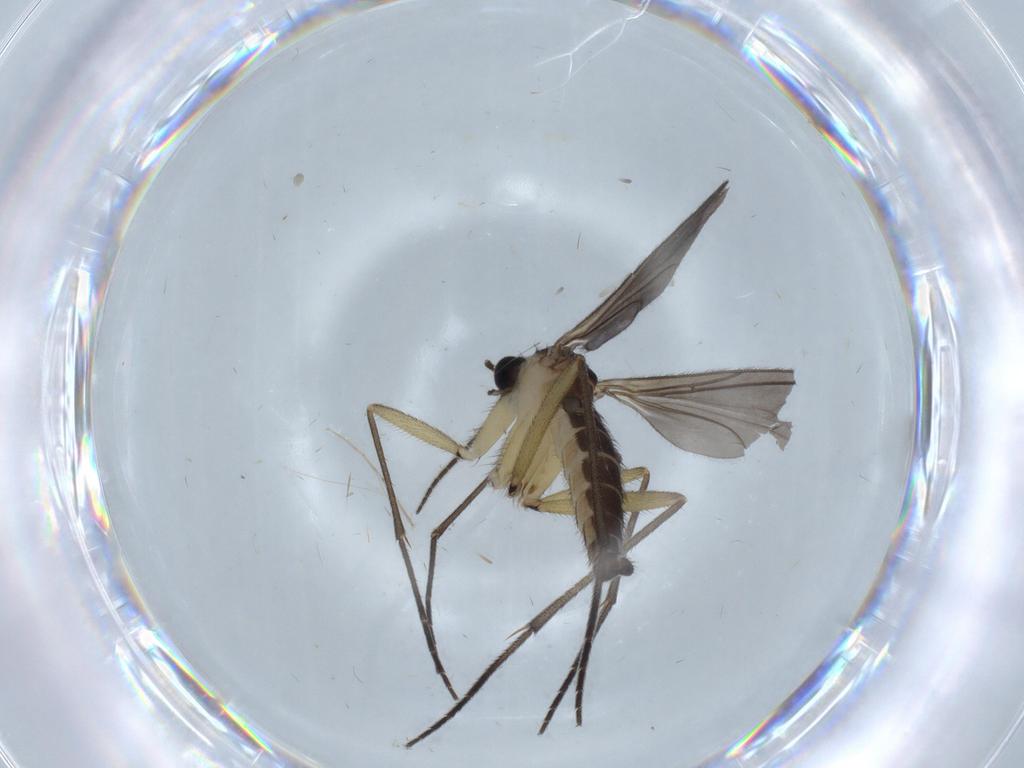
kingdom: Animalia
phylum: Arthropoda
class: Insecta
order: Diptera
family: Sciaridae
